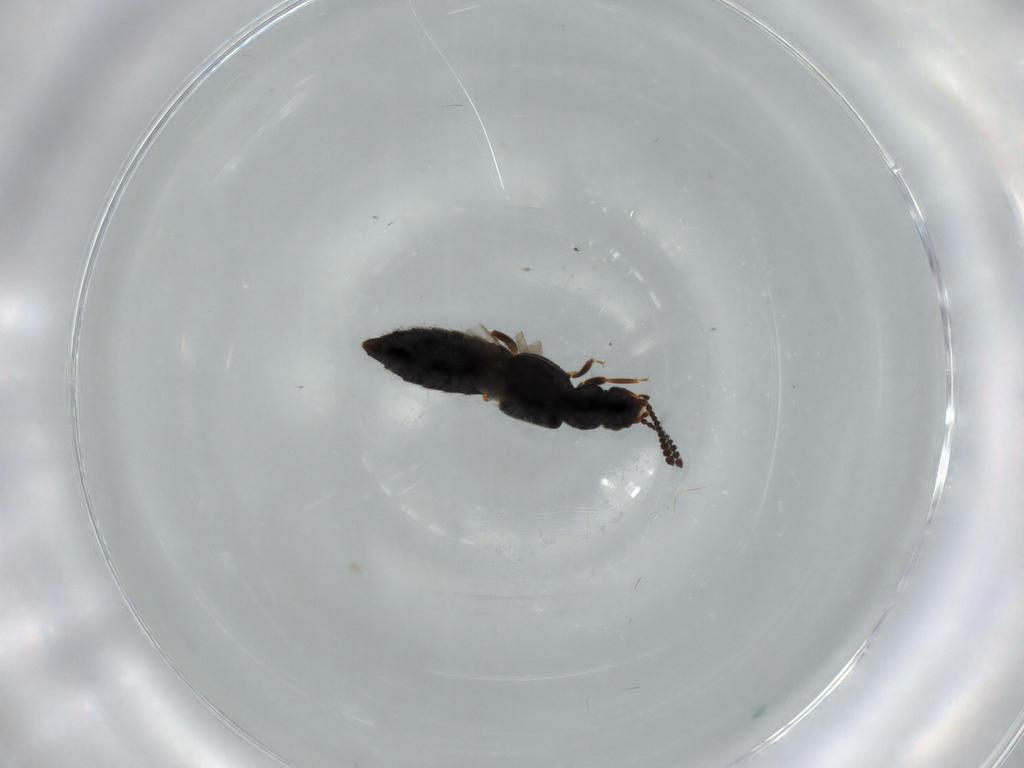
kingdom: Animalia
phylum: Arthropoda
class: Insecta
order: Coleoptera
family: Staphylinidae
